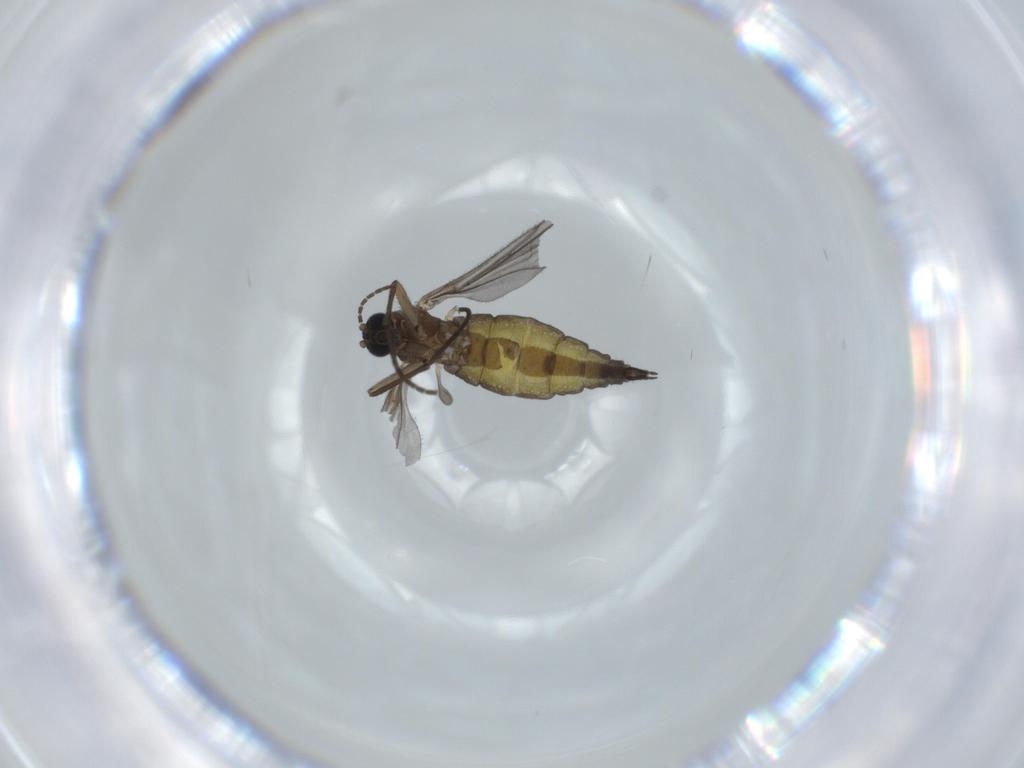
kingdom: Animalia
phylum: Arthropoda
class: Insecta
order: Diptera
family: Sciaridae
